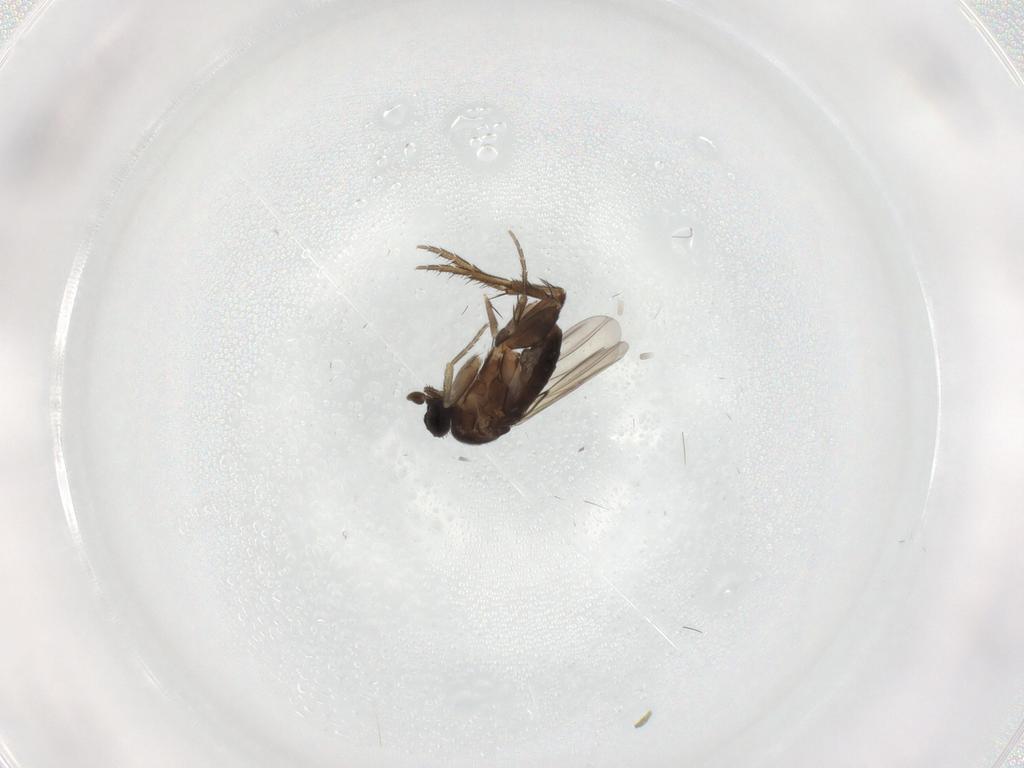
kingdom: Animalia
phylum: Arthropoda
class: Insecta
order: Diptera
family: Phoridae
